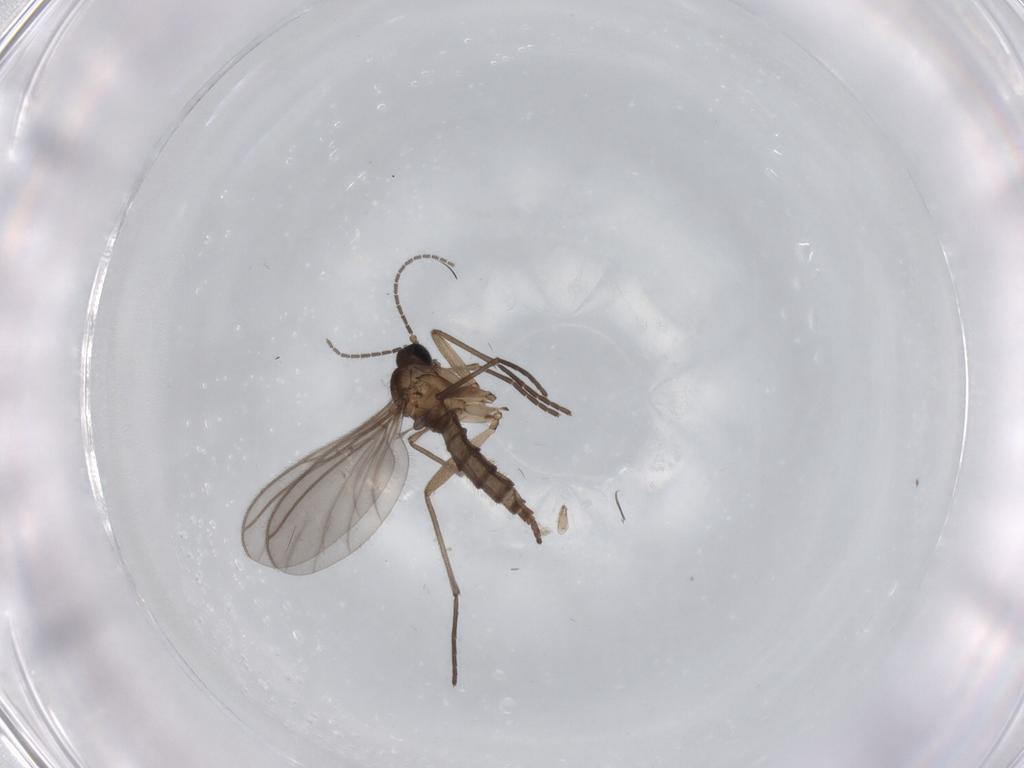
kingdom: Animalia
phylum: Arthropoda
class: Insecta
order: Diptera
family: Sciaridae
